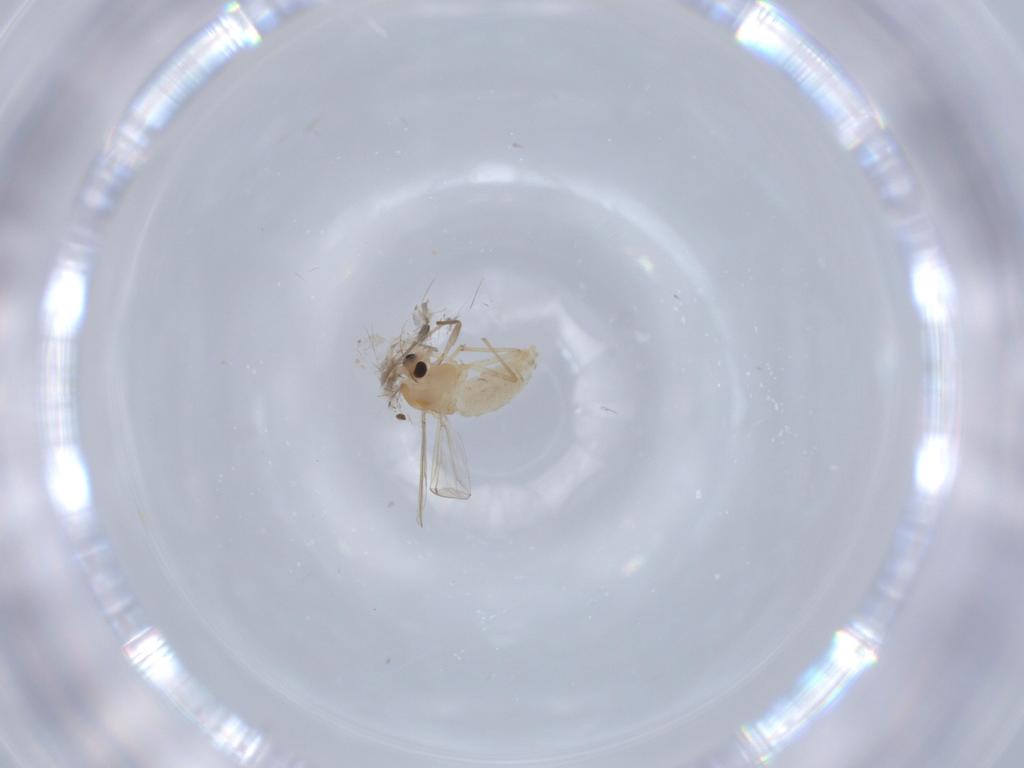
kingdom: Animalia
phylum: Arthropoda
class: Insecta
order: Diptera
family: Chironomidae
